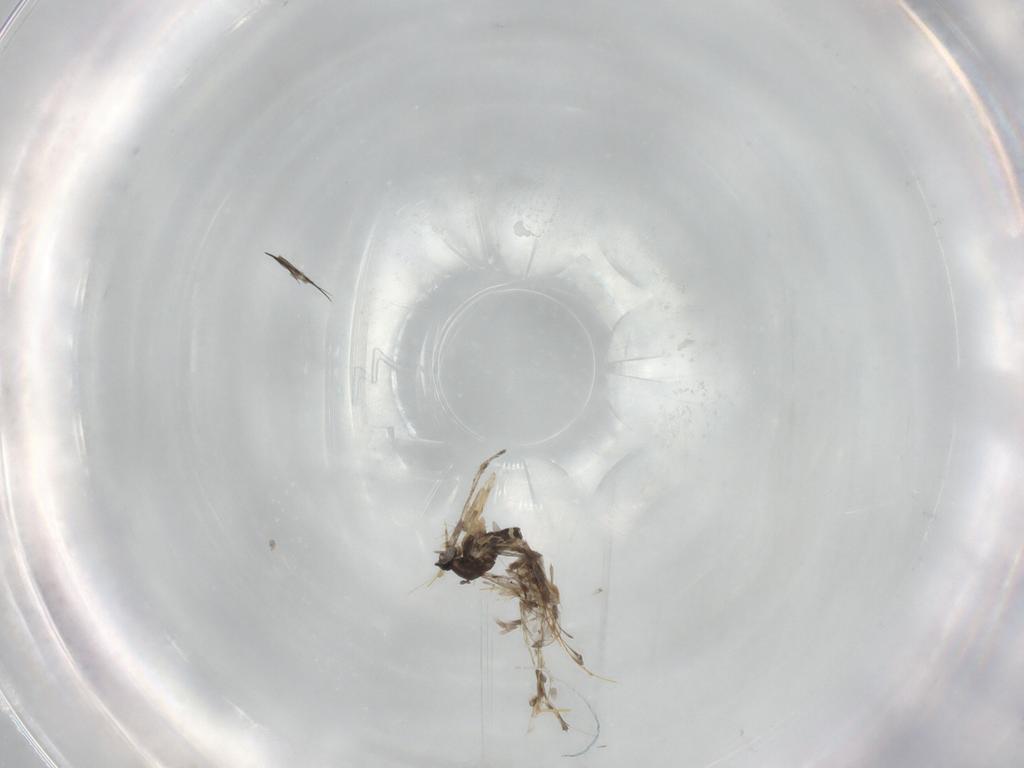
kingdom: Animalia
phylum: Arthropoda
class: Insecta
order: Diptera
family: Cecidomyiidae
